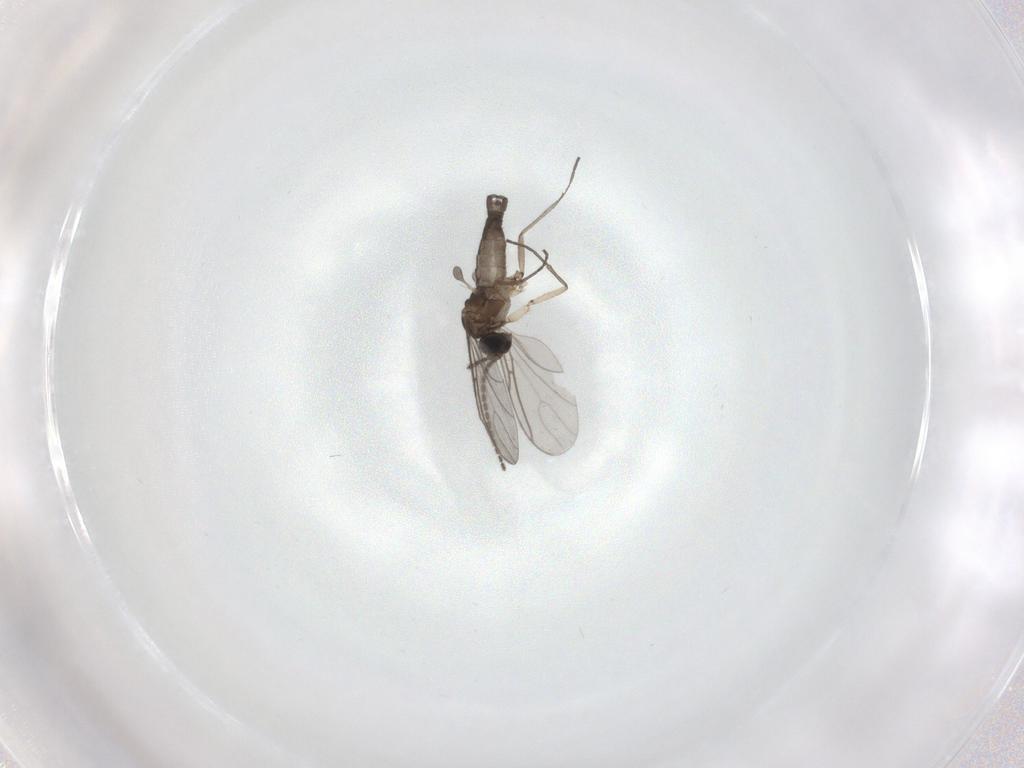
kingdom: Animalia
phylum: Arthropoda
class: Insecta
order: Diptera
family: Sciaridae
